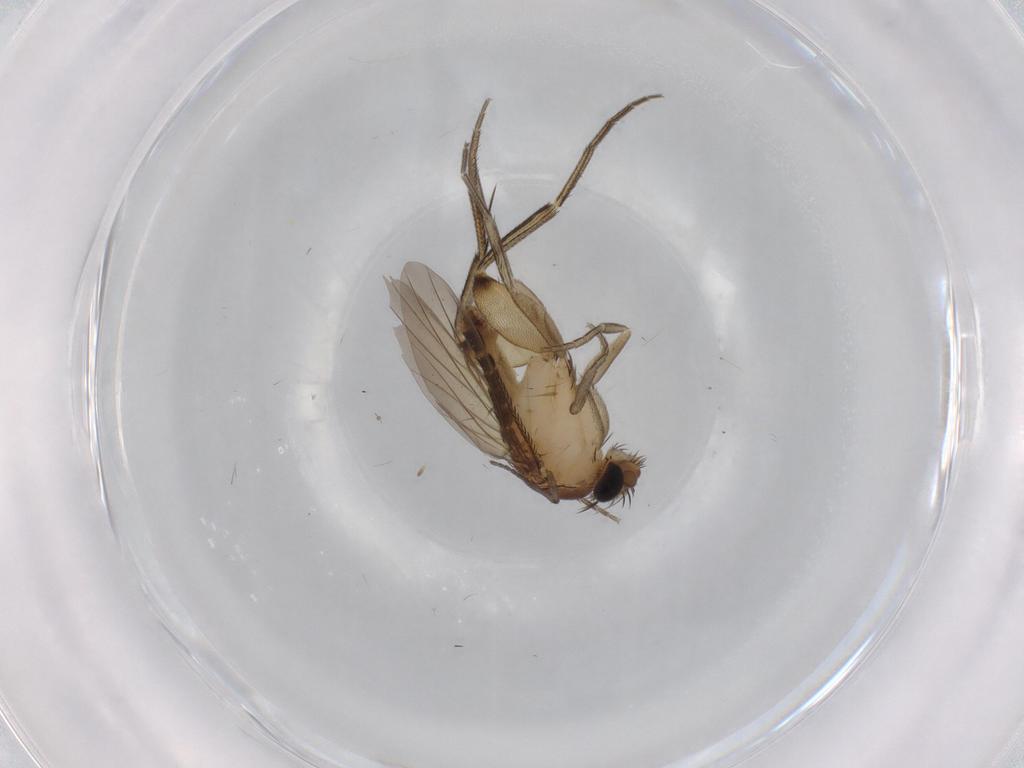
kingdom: Animalia
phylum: Arthropoda
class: Insecta
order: Diptera
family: Phoridae
